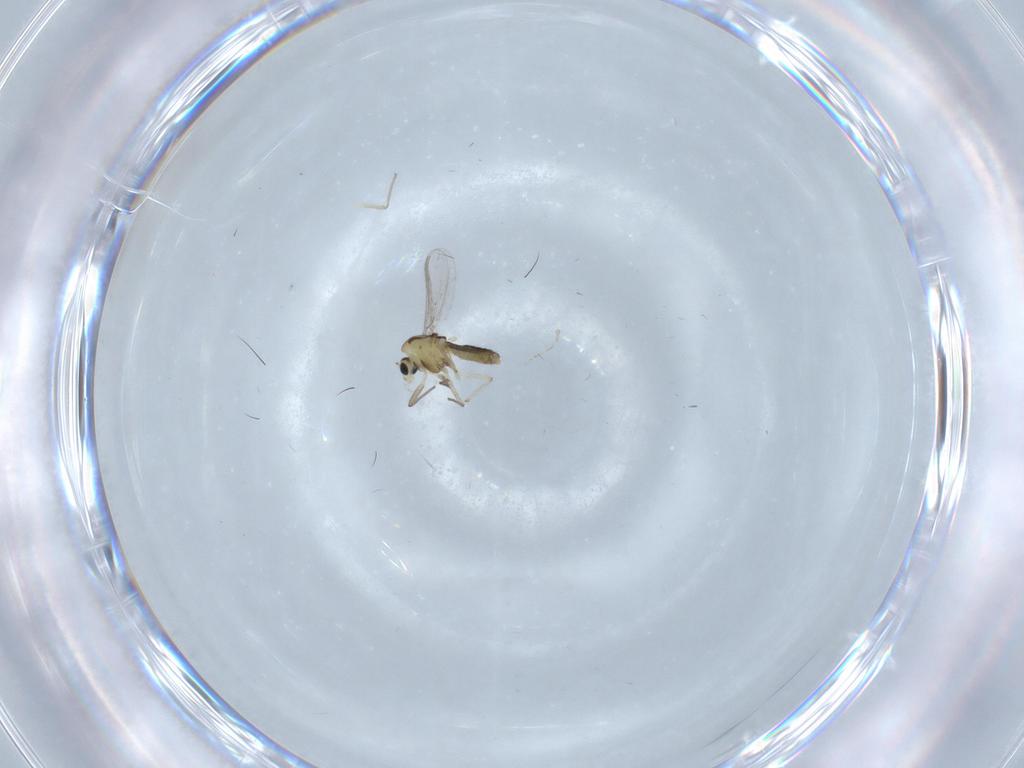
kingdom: Animalia
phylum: Arthropoda
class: Insecta
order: Diptera
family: Chironomidae
